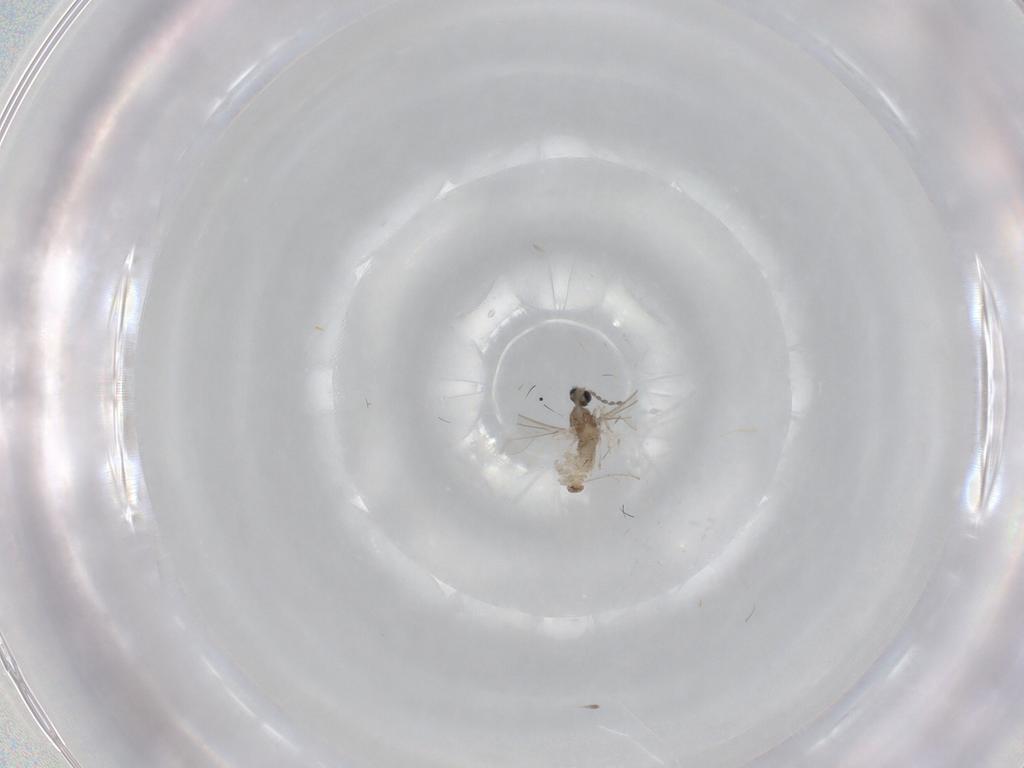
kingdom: Animalia
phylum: Arthropoda
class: Insecta
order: Diptera
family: Cecidomyiidae
